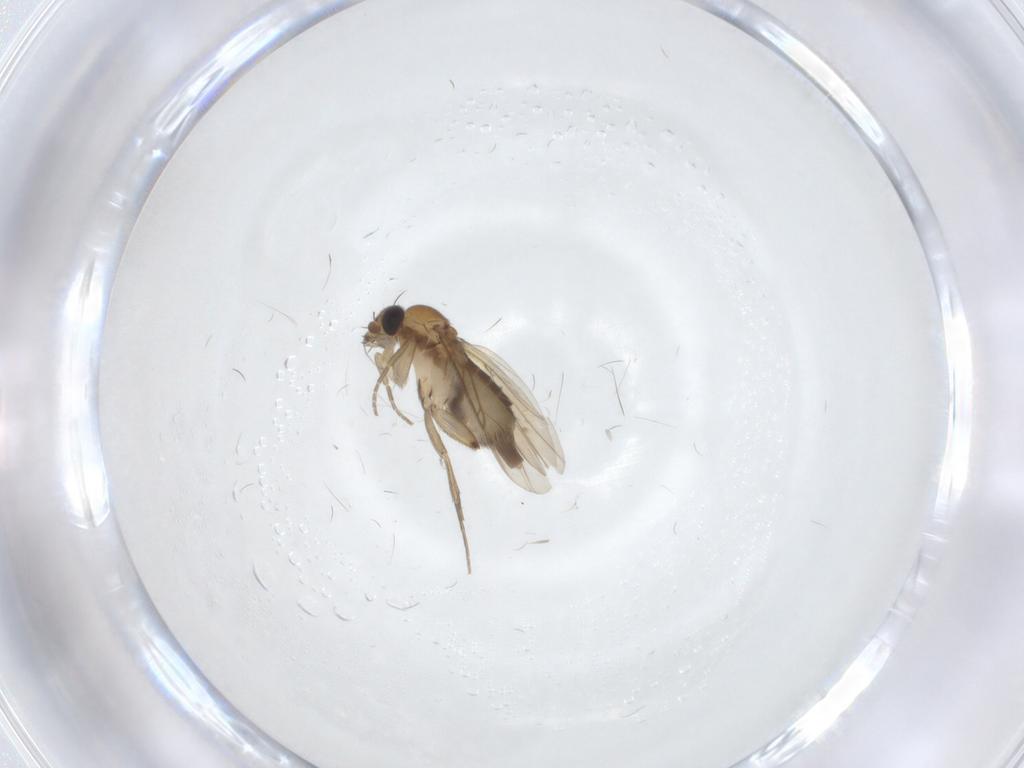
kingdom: Animalia
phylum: Arthropoda
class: Insecta
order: Diptera
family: Phoridae
